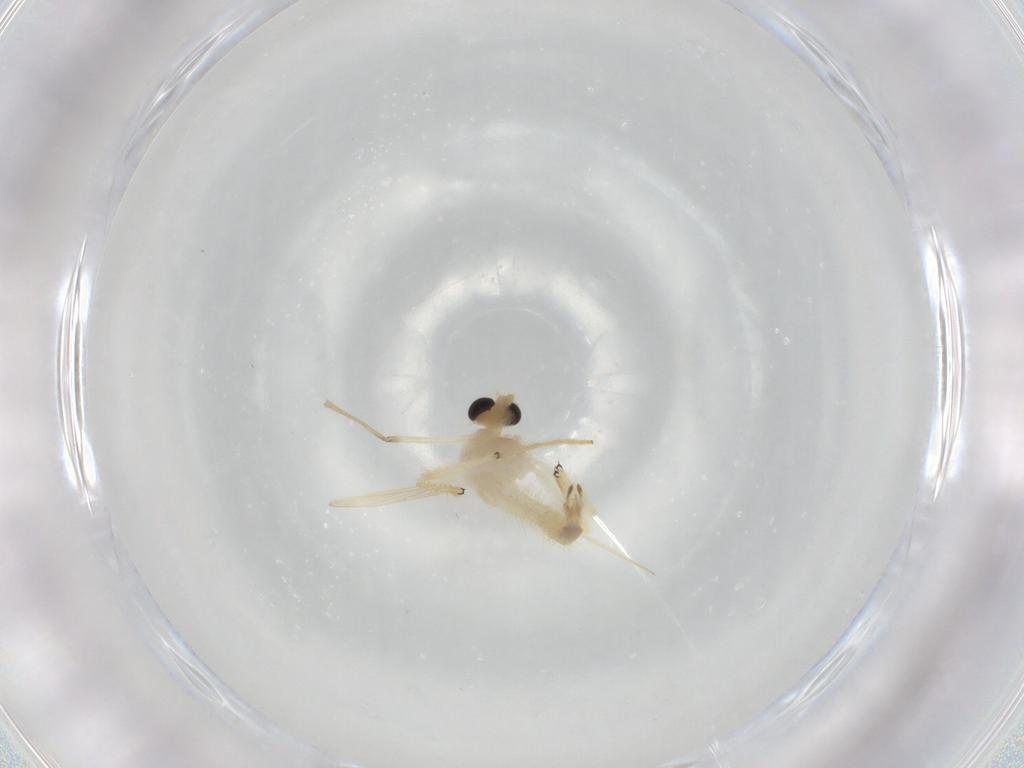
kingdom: Animalia
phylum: Arthropoda
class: Insecta
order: Diptera
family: Chironomidae
